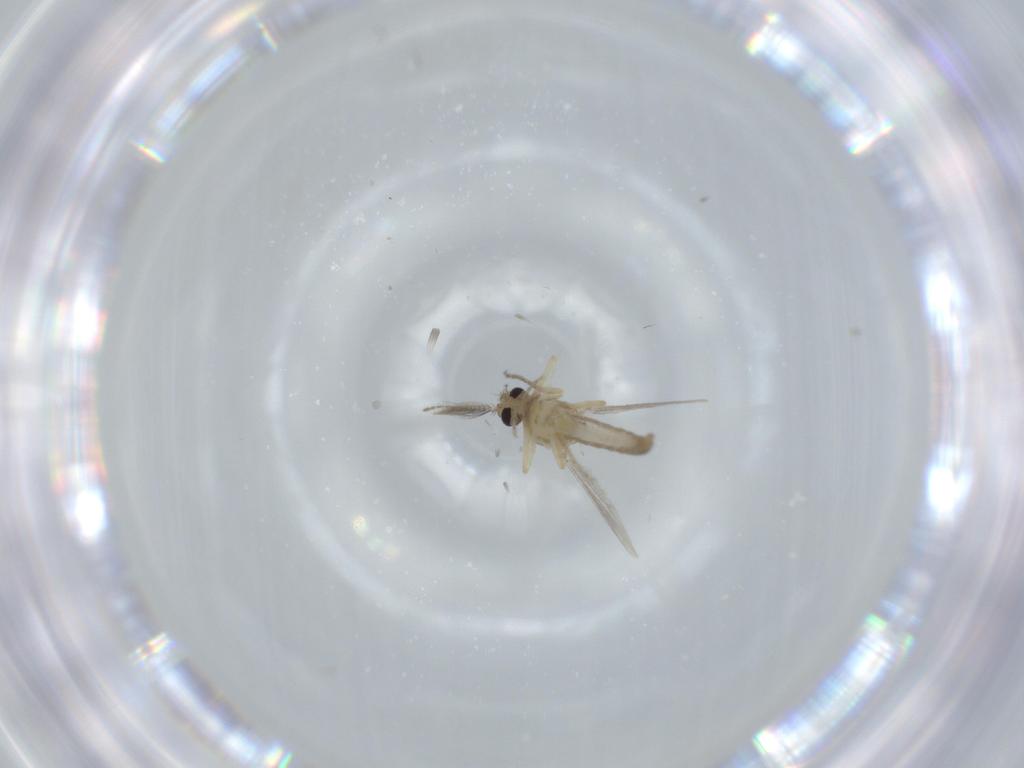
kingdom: Animalia
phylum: Arthropoda
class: Insecta
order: Diptera
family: Ceratopogonidae
